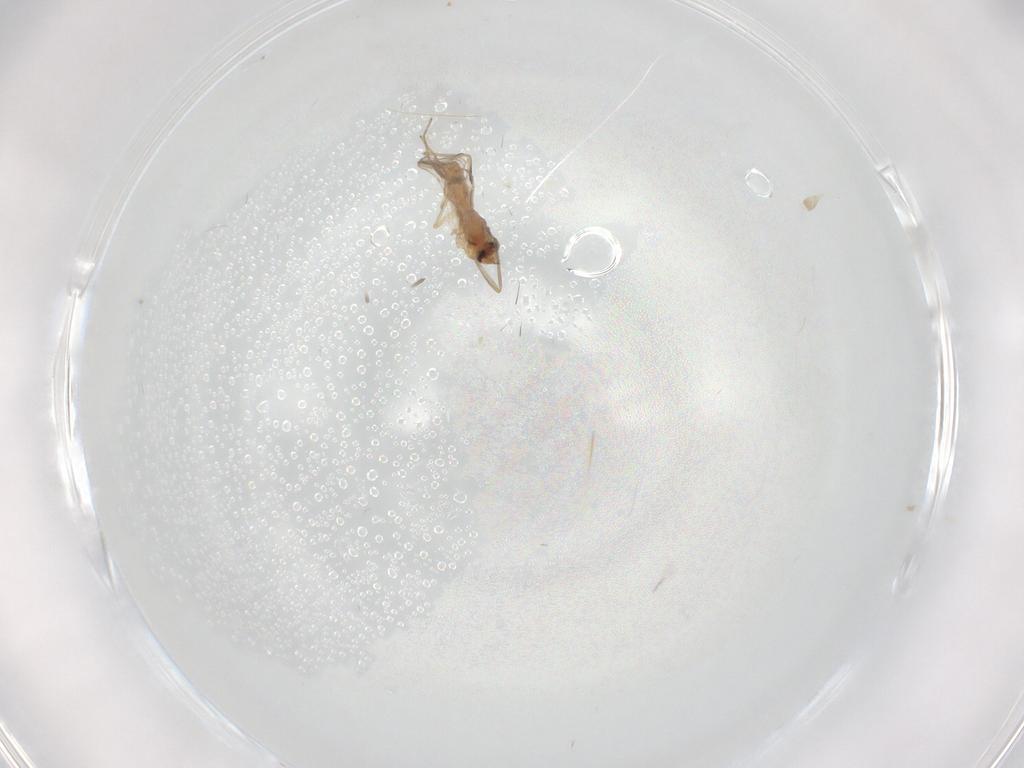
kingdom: Animalia
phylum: Arthropoda
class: Insecta
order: Diptera
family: Chironomidae
